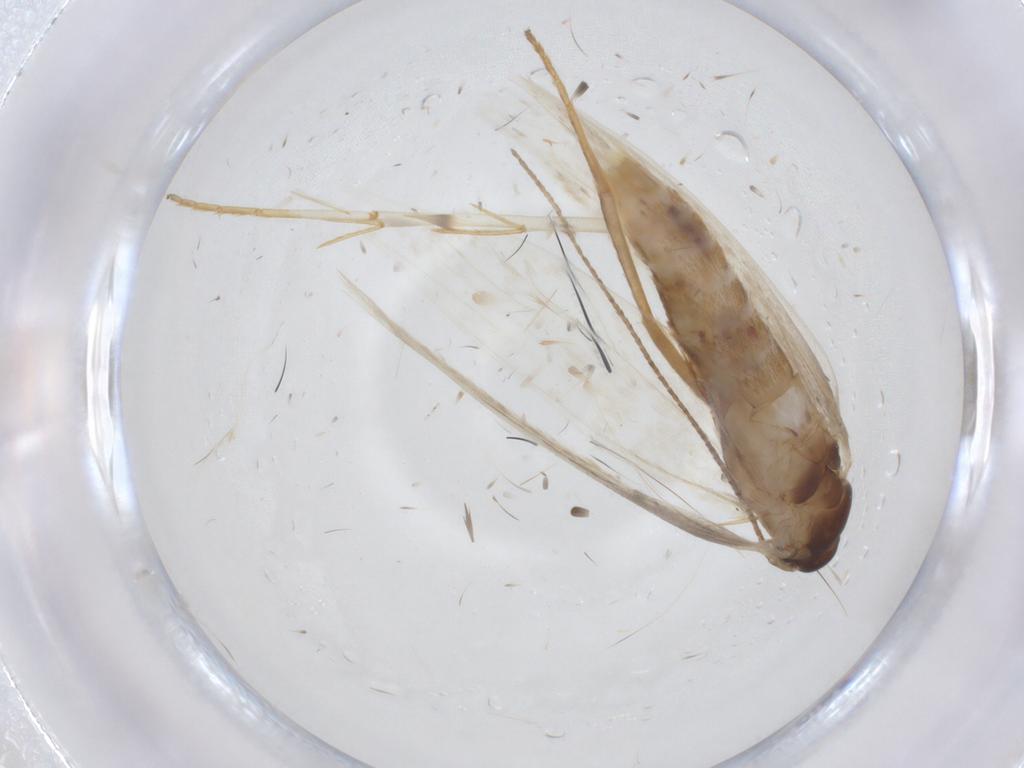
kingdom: Animalia
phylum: Arthropoda
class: Insecta
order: Lepidoptera
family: Erebidae
